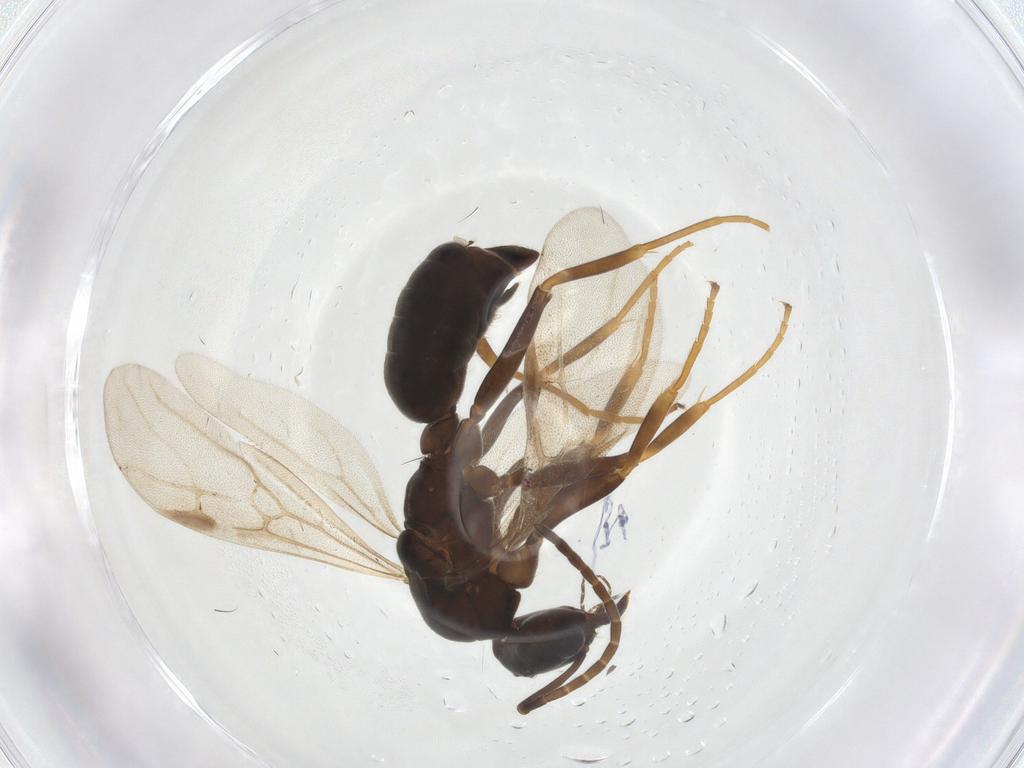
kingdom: Animalia
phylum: Arthropoda
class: Insecta
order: Hymenoptera
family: Formicidae
